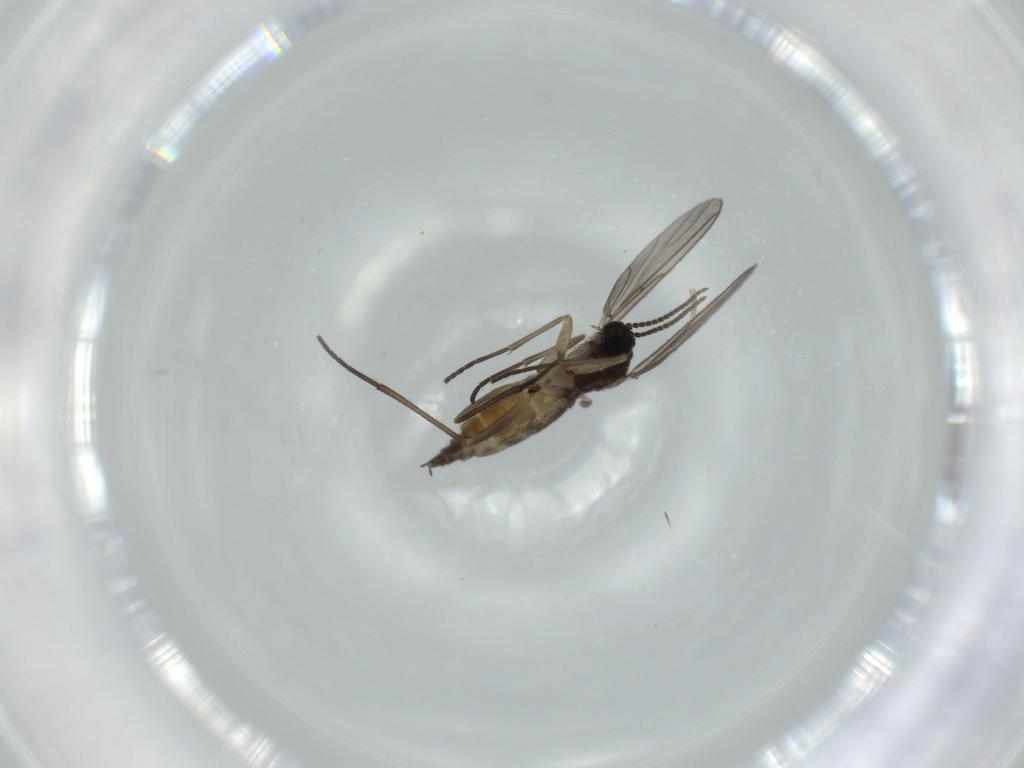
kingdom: Animalia
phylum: Arthropoda
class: Insecta
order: Diptera
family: Sciaridae
